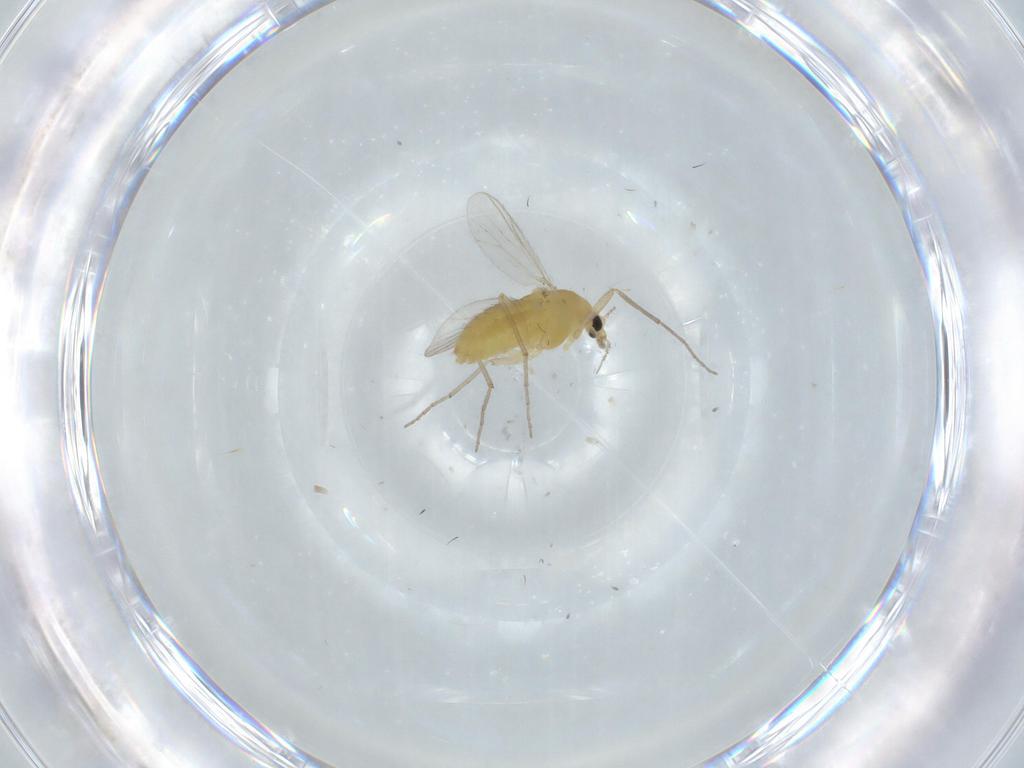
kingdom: Animalia
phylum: Arthropoda
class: Insecta
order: Diptera
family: Chironomidae
